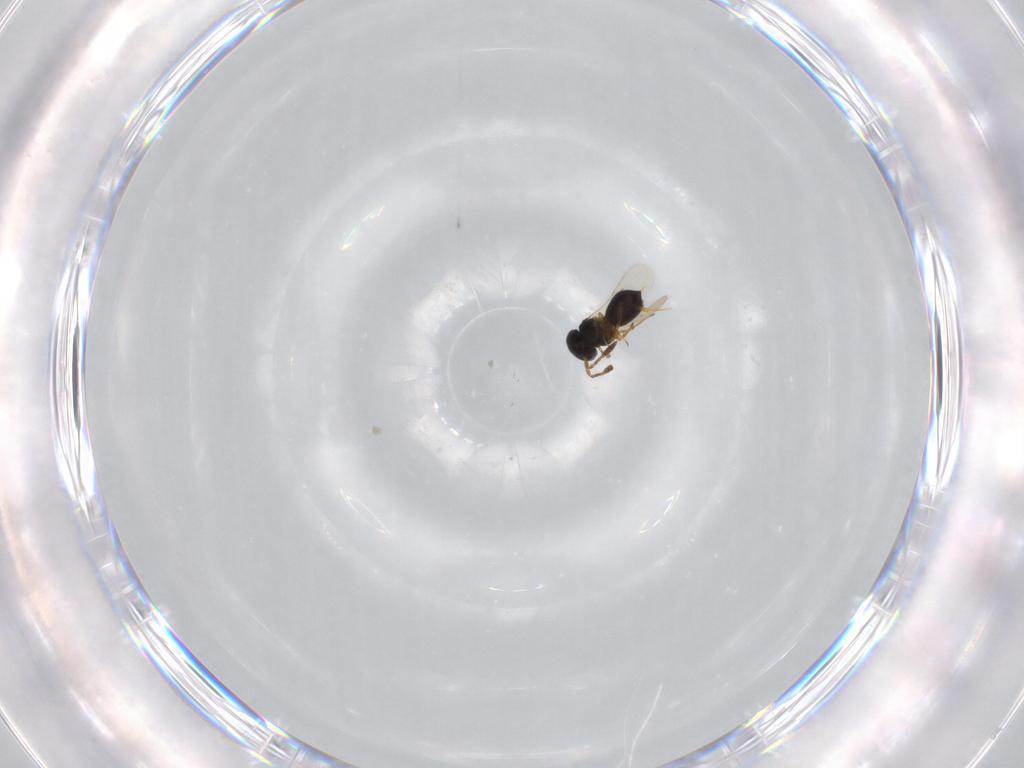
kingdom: Animalia
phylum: Arthropoda
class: Insecta
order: Hymenoptera
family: Scelionidae
